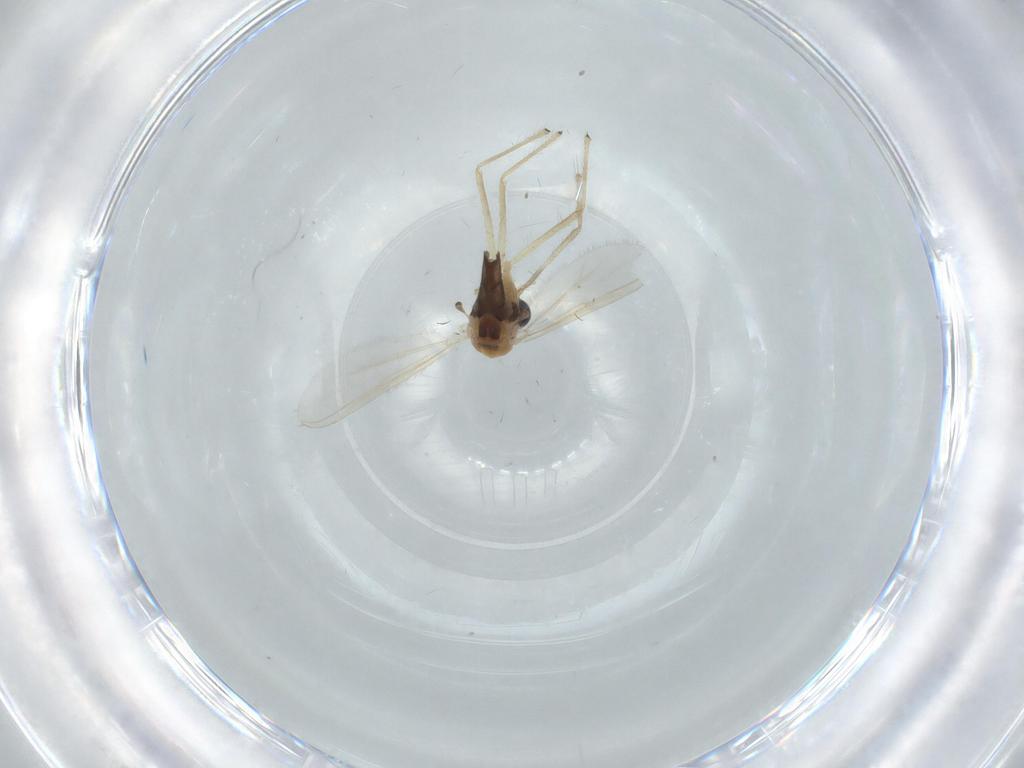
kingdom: Animalia
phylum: Arthropoda
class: Insecta
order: Diptera
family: Chironomidae
